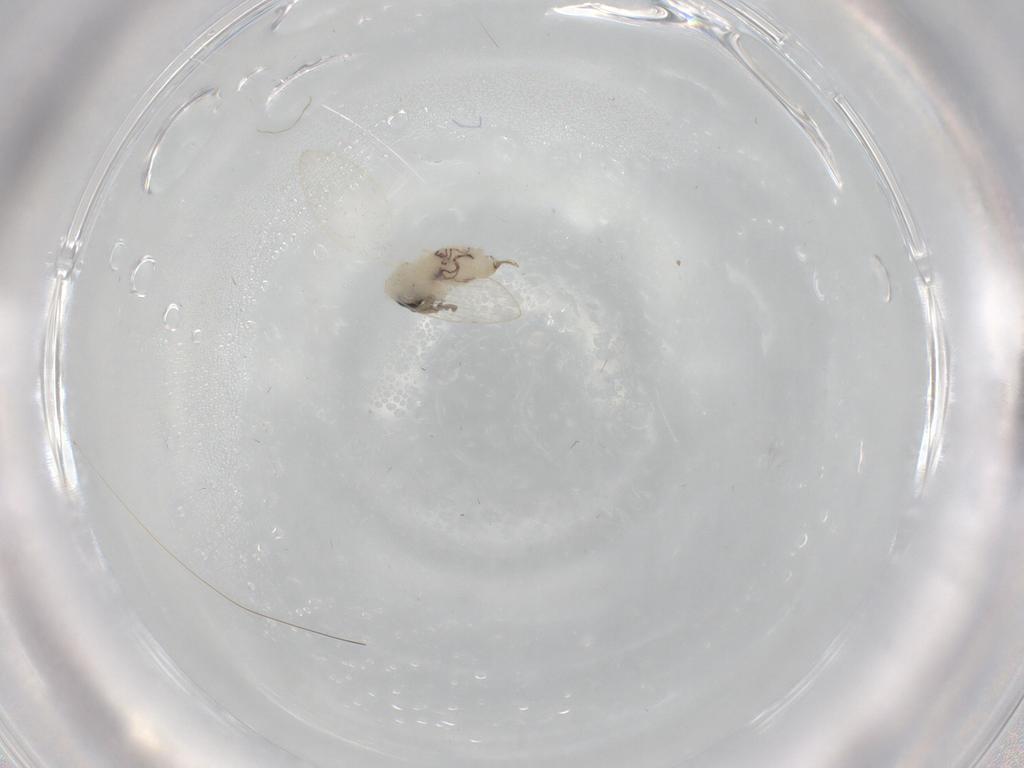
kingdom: Animalia
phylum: Arthropoda
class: Insecta
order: Diptera
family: Psychodidae
